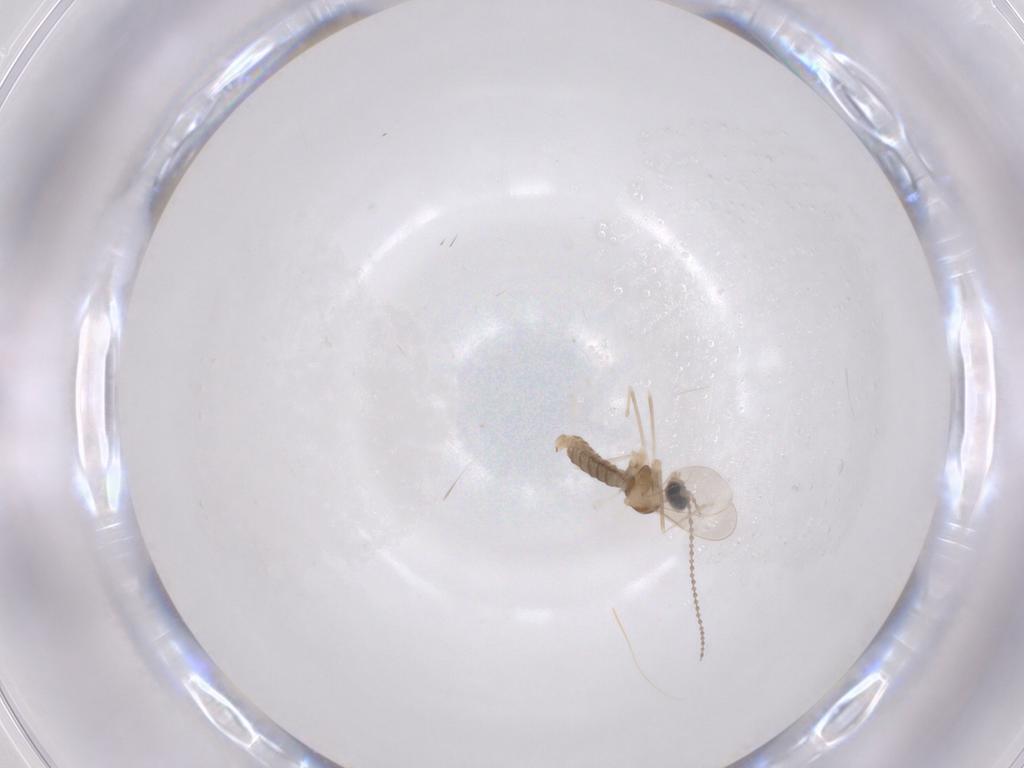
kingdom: Animalia
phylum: Arthropoda
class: Insecta
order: Diptera
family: Cecidomyiidae
